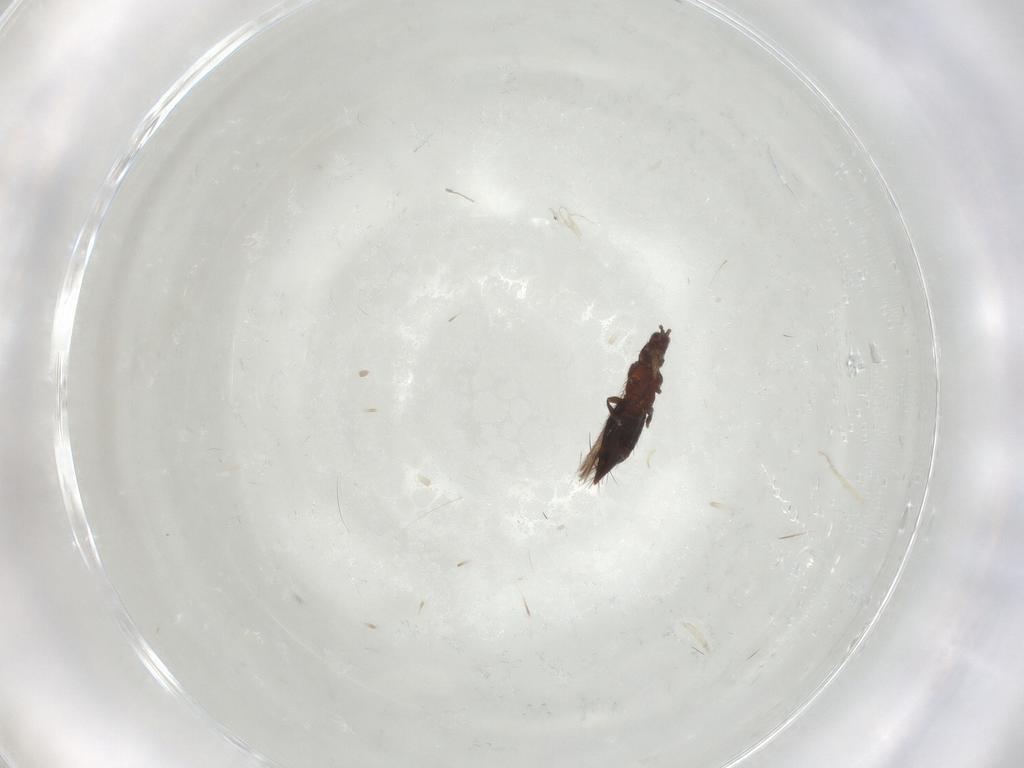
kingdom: Animalia
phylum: Arthropoda
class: Insecta
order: Thysanoptera
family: Thripidae
